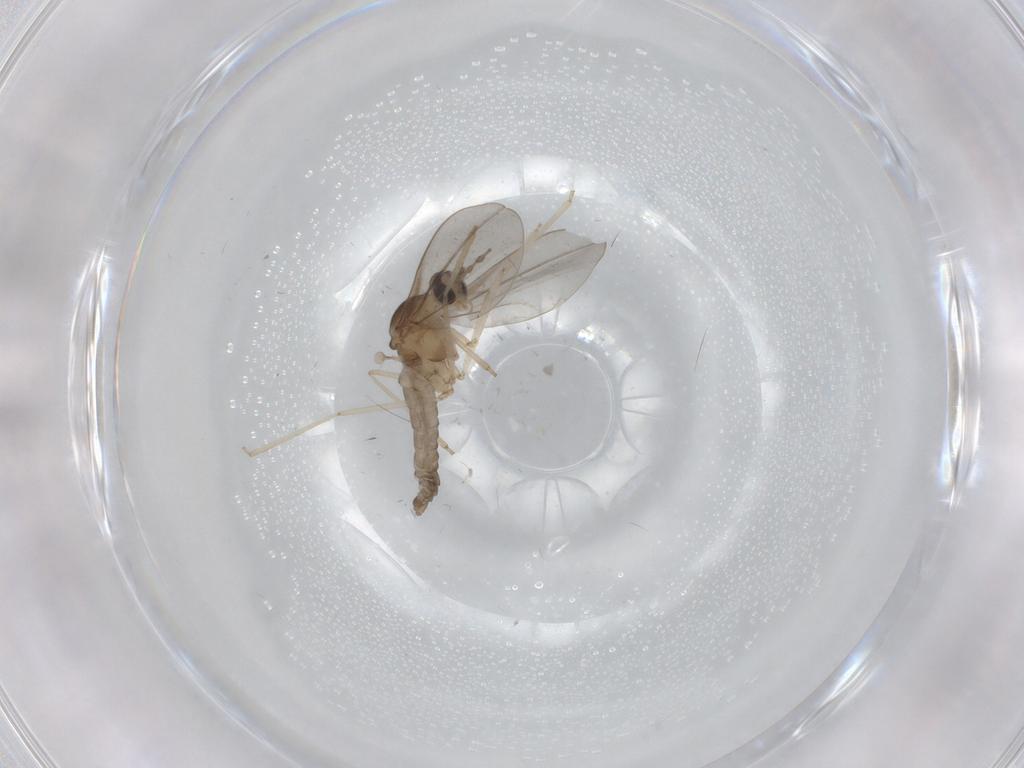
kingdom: Animalia
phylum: Arthropoda
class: Insecta
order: Diptera
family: Cecidomyiidae
